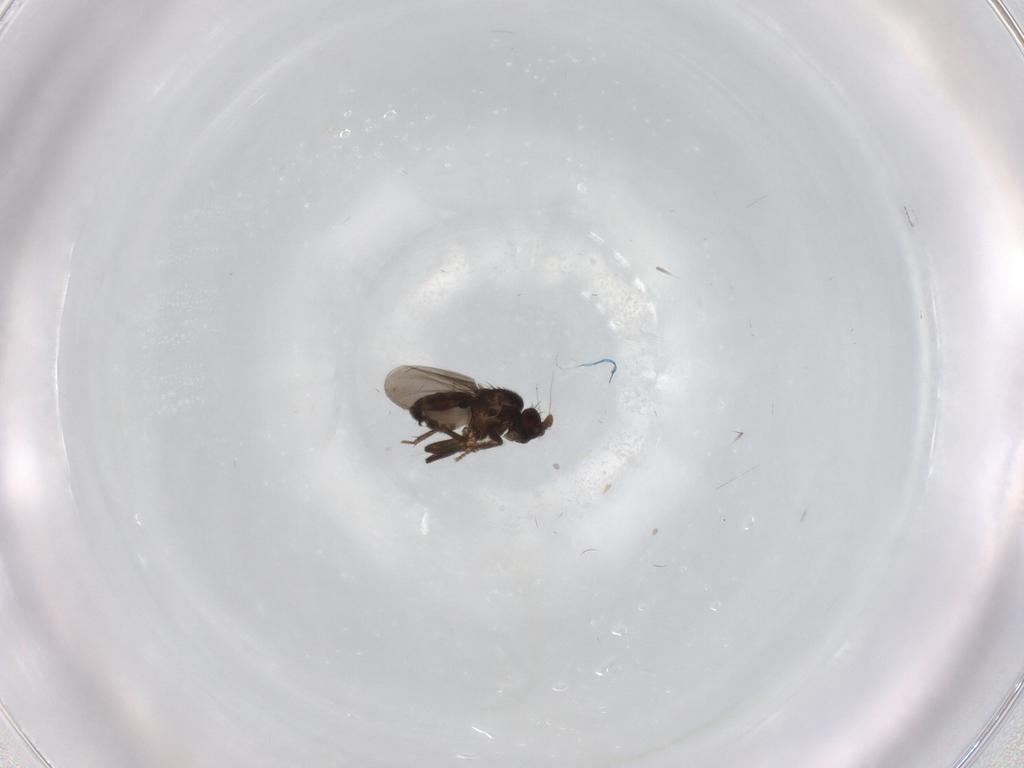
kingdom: Animalia
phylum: Arthropoda
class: Insecta
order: Diptera
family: Sphaeroceridae
